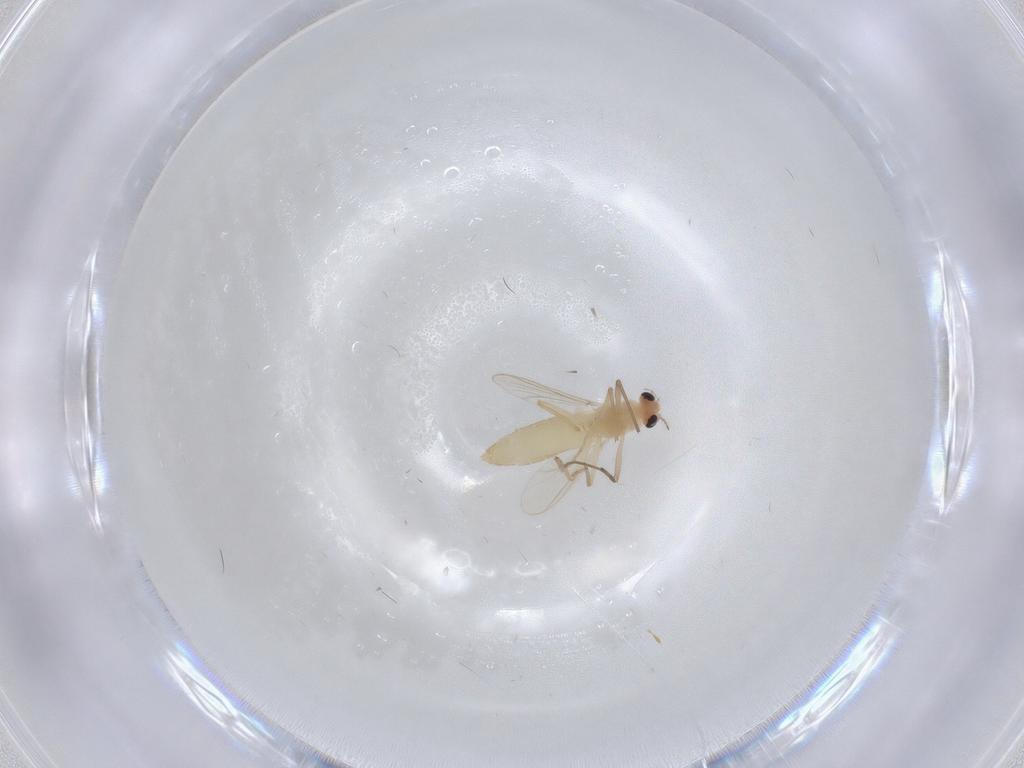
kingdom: Animalia
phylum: Arthropoda
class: Insecta
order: Diptera
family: Chironomidae
